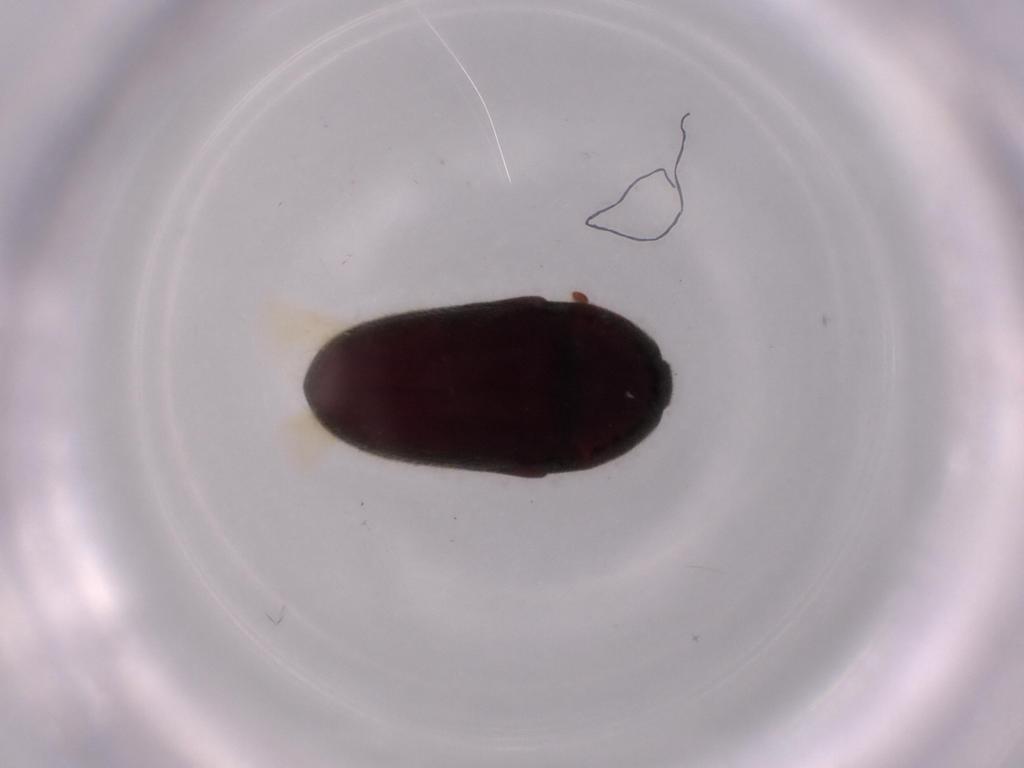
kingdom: Animalia
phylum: Arthropoda
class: Insecta
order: Coleoptera
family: Throscidae
